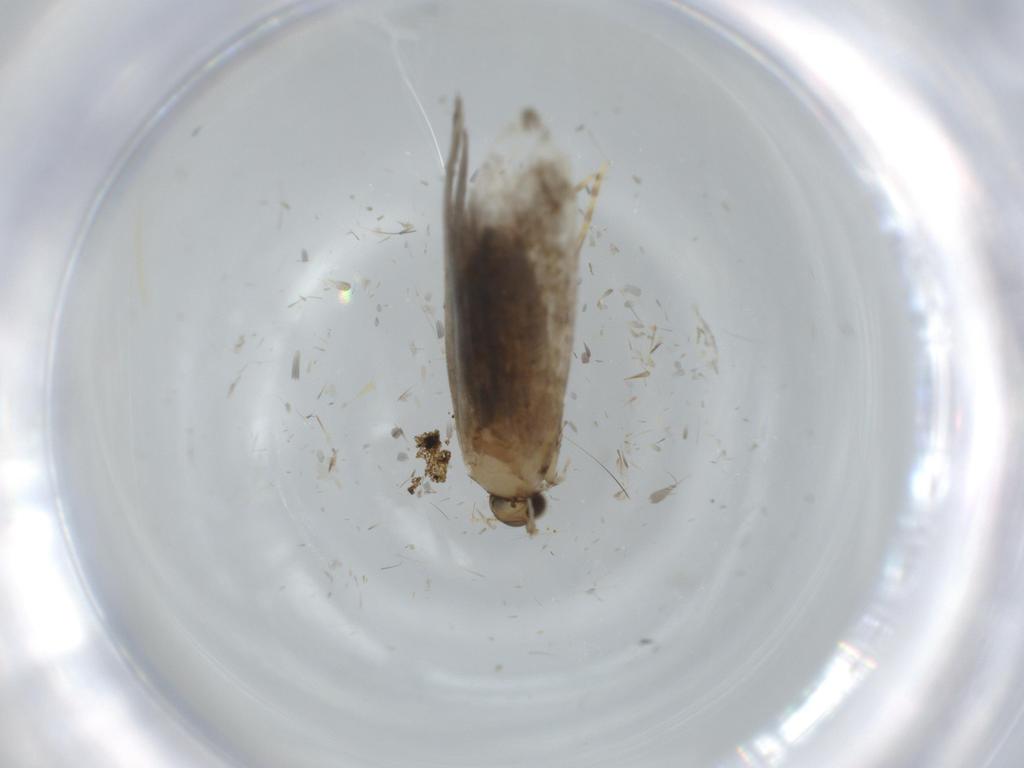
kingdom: Animalia
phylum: Arthropoda
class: Insecta
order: Lepidoptera
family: Tineidae
